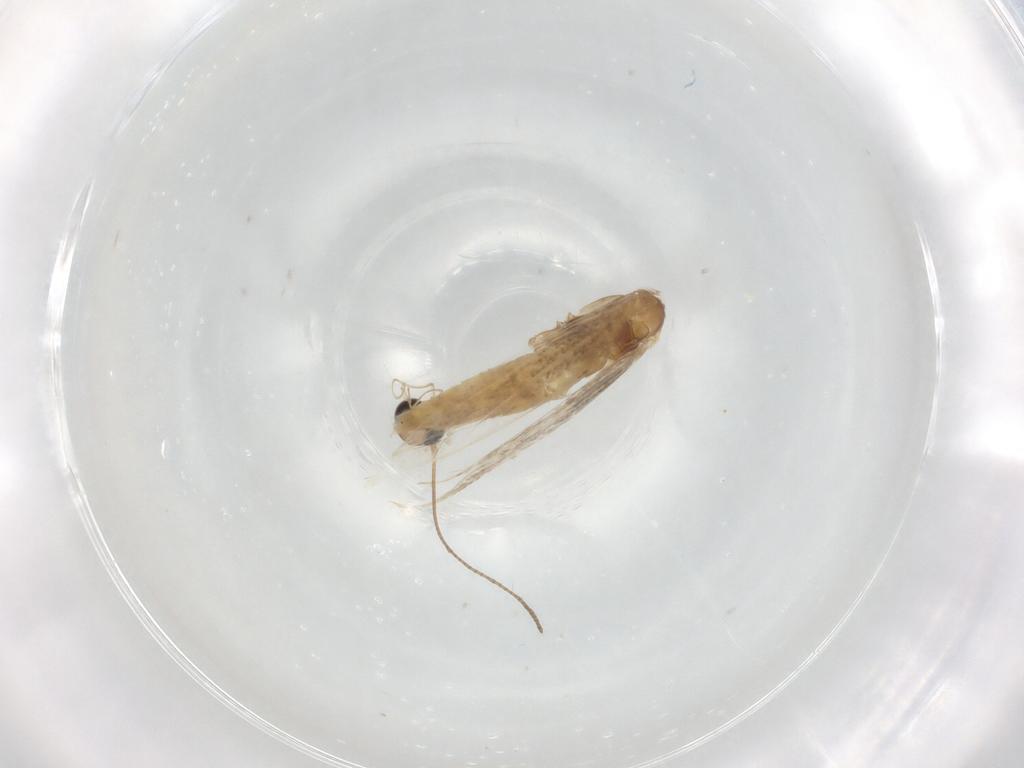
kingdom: Animalia
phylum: Arthropoda
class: Insecta
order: Lepidoptera
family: Gracillariidae
